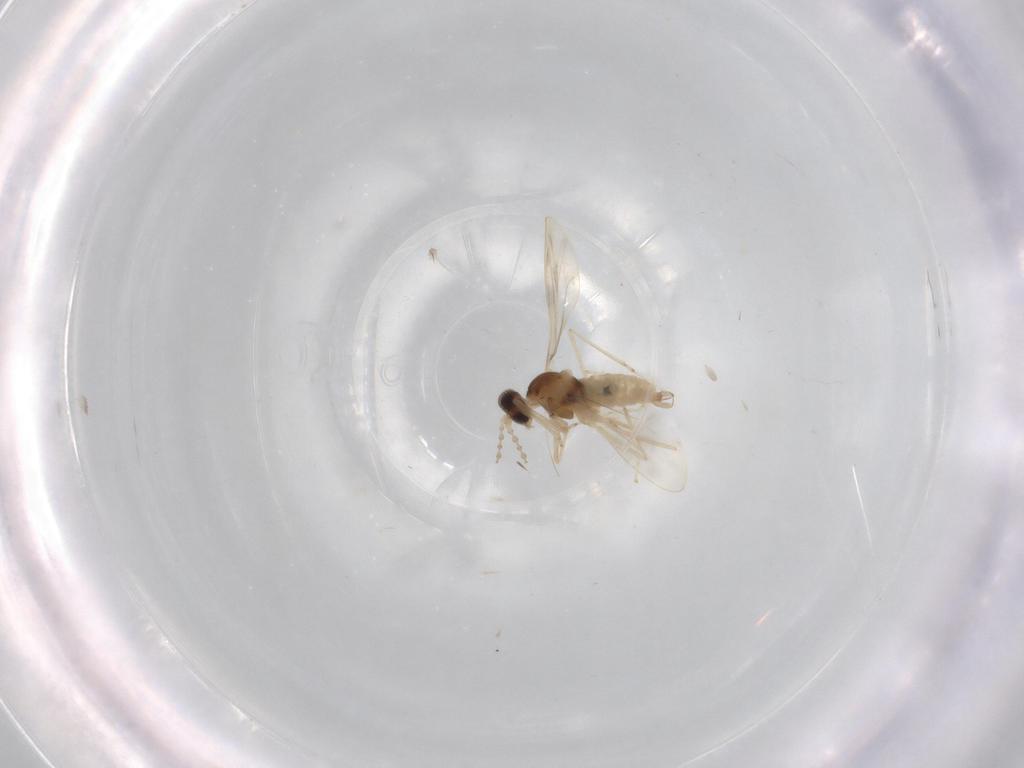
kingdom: Animalia
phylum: Arthropoda
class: Insecta
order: Diptera
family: Cecidomyiidae
